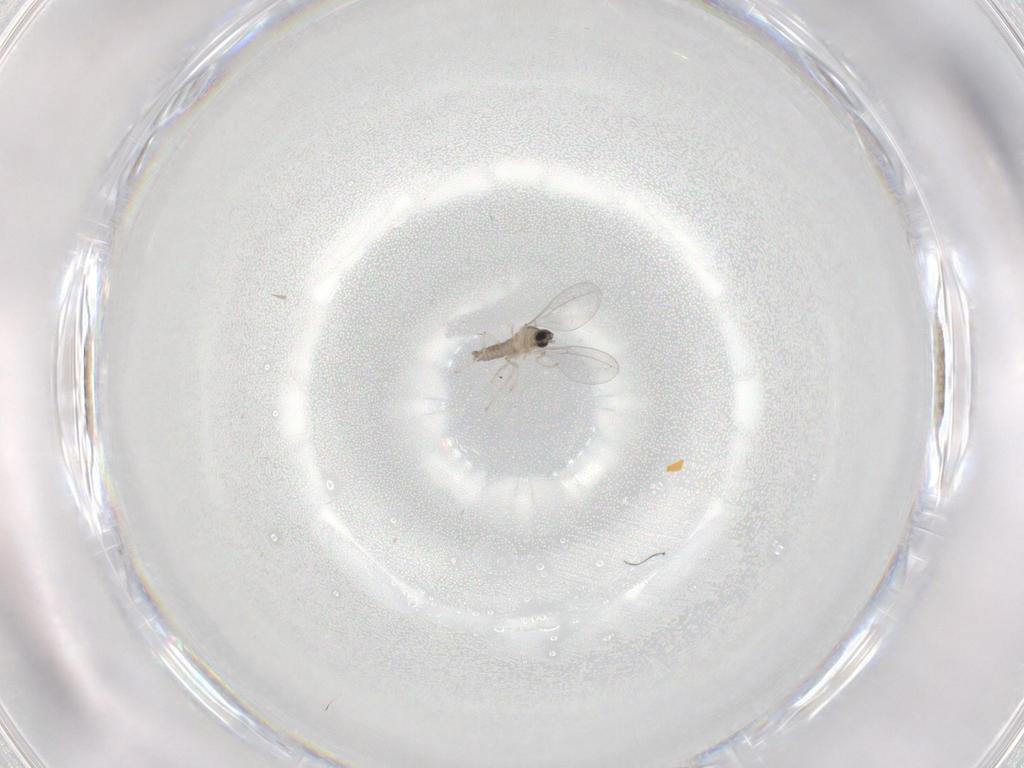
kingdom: Animalia
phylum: Arthropoda
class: Insecta
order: Diptera
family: Cecidomyiidae
